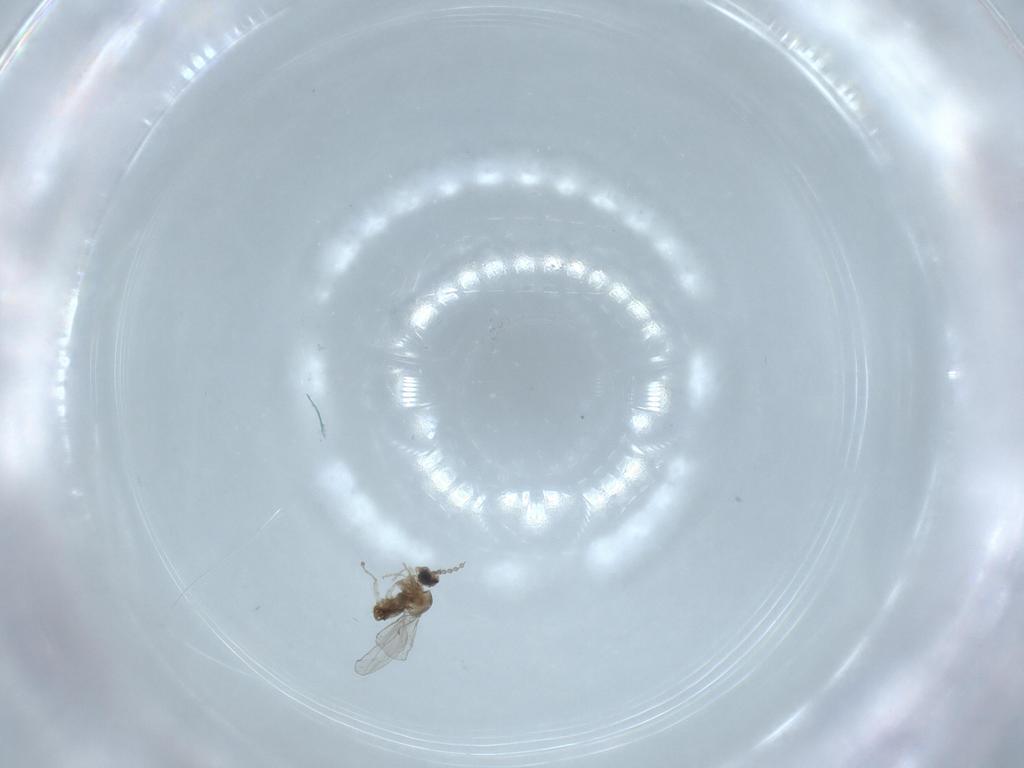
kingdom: Animalia
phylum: Arthropoda
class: Insecta
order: Diptera
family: Cecidomyiidae
